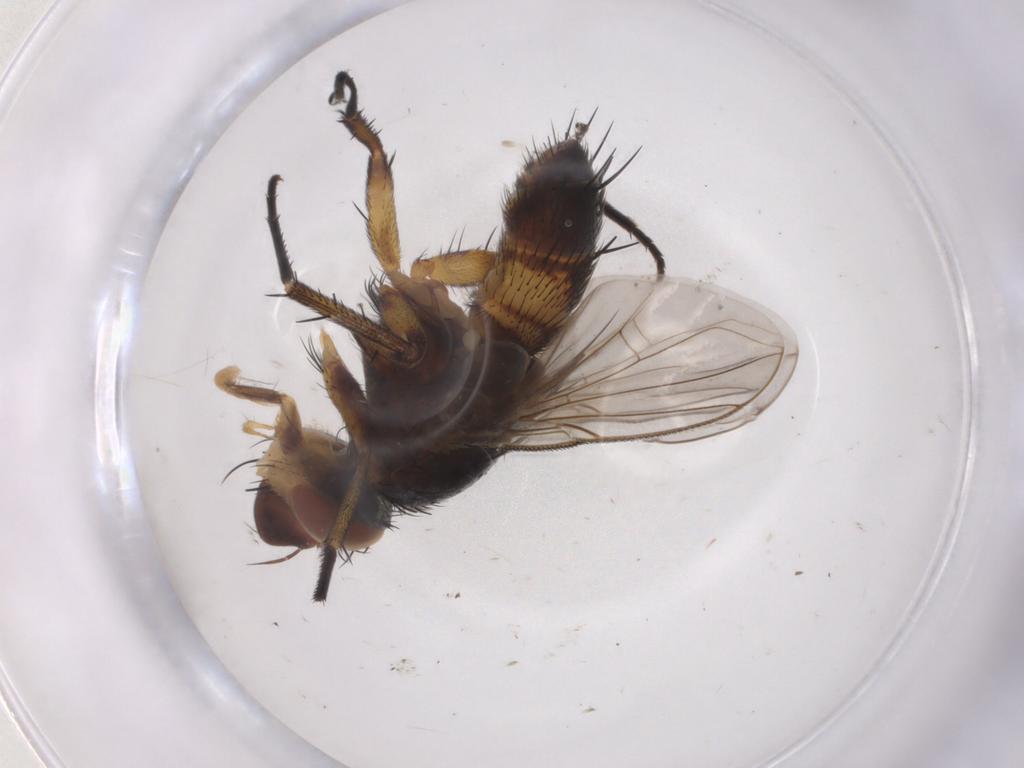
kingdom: Animalia
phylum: Arthropoda
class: Insecta
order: Diptera
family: Tachinidae
